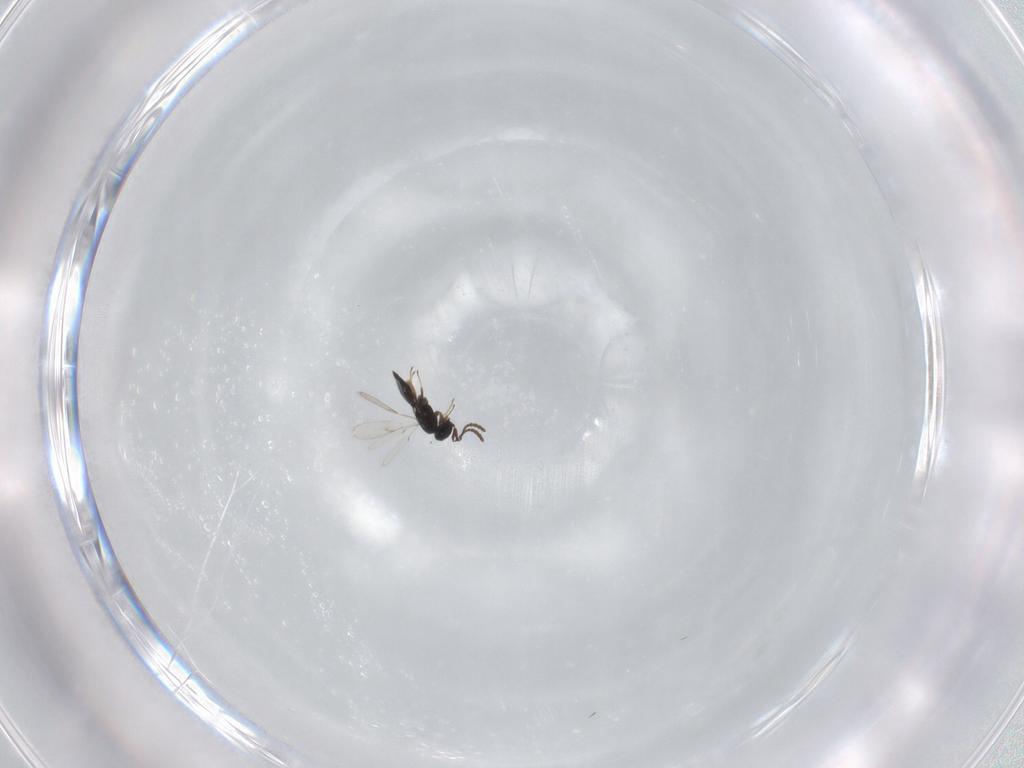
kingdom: Animalia
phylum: Arthropoda
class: Insecta
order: Hymenoptera
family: Scelionidae
